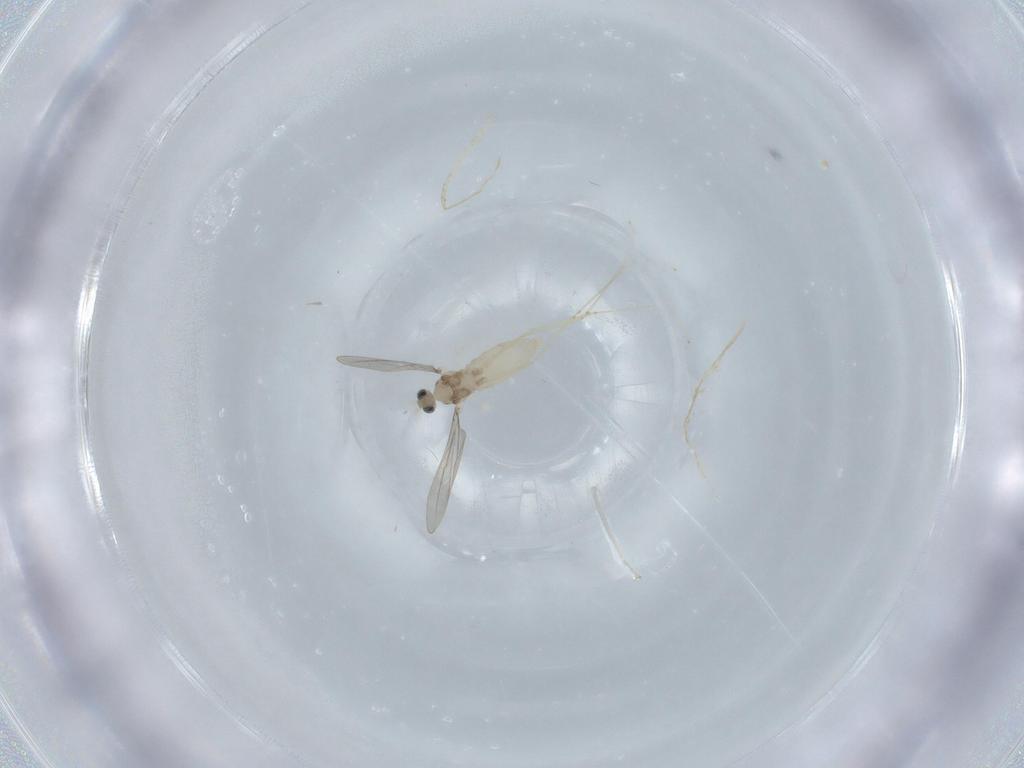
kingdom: Animalia
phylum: Arthropoda
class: Insecta
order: Diptera
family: Cecidomyiidae
